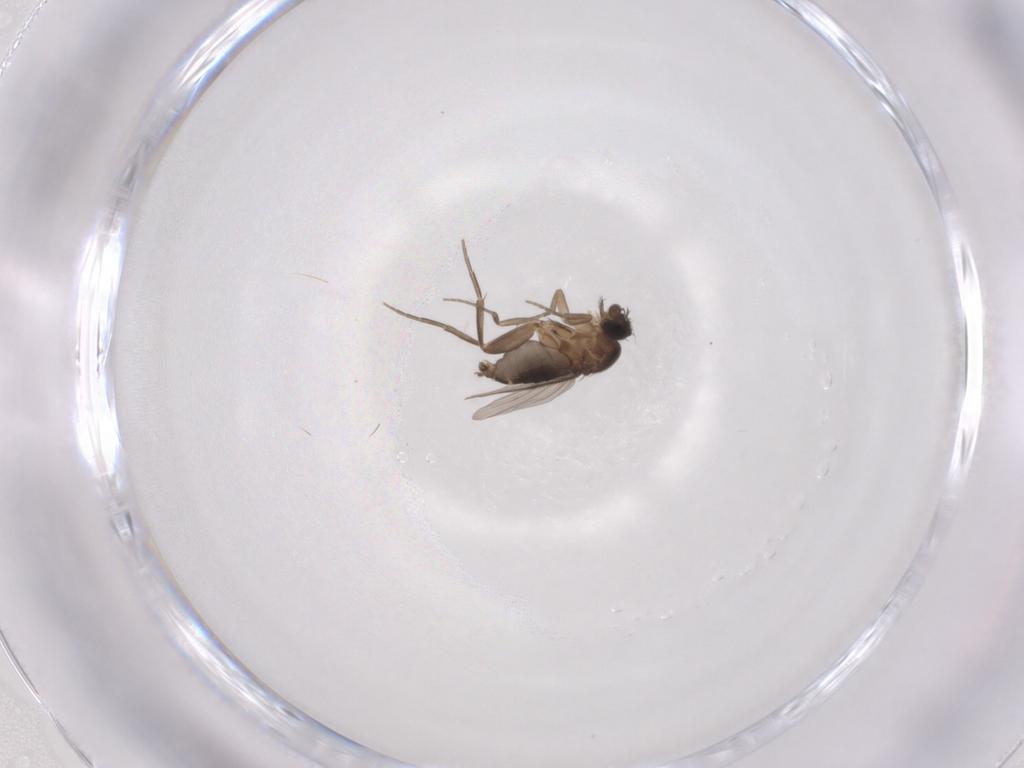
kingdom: Animalia
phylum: Arthropoda
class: Insecta
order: Diptera
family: Phoridae
